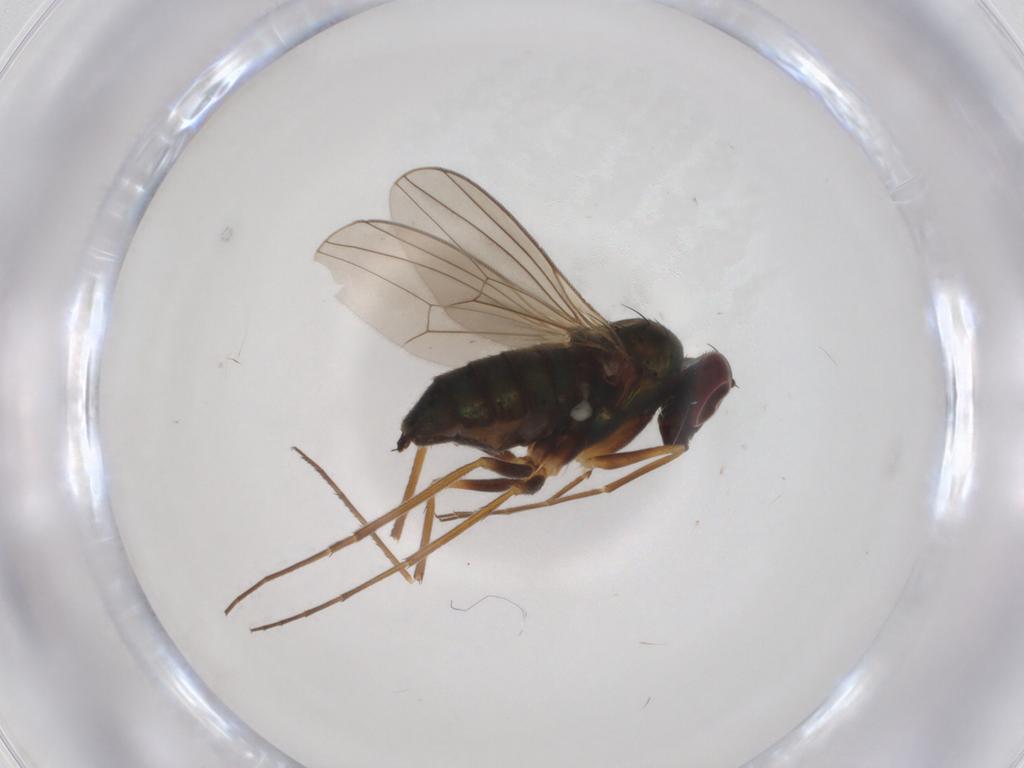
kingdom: Animalia
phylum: Arthropoda
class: Insecta
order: Diptera
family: Dolichopodidae
